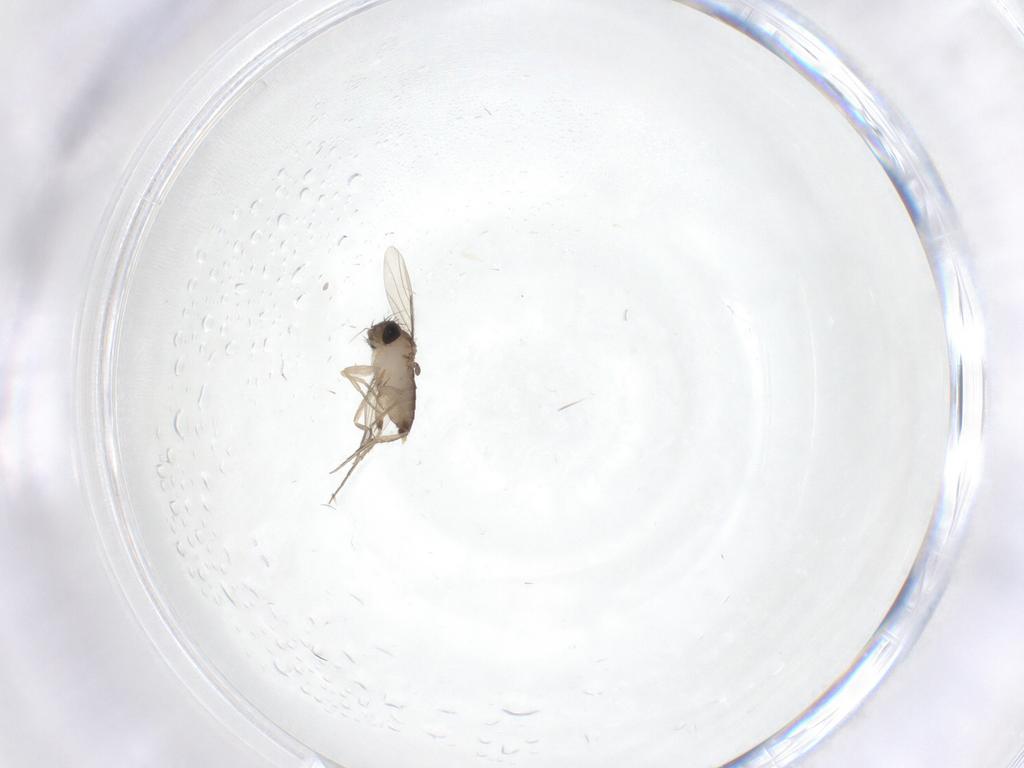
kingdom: Animalia
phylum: Arthropoda
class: Insecta
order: Diptera
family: Phoridae
